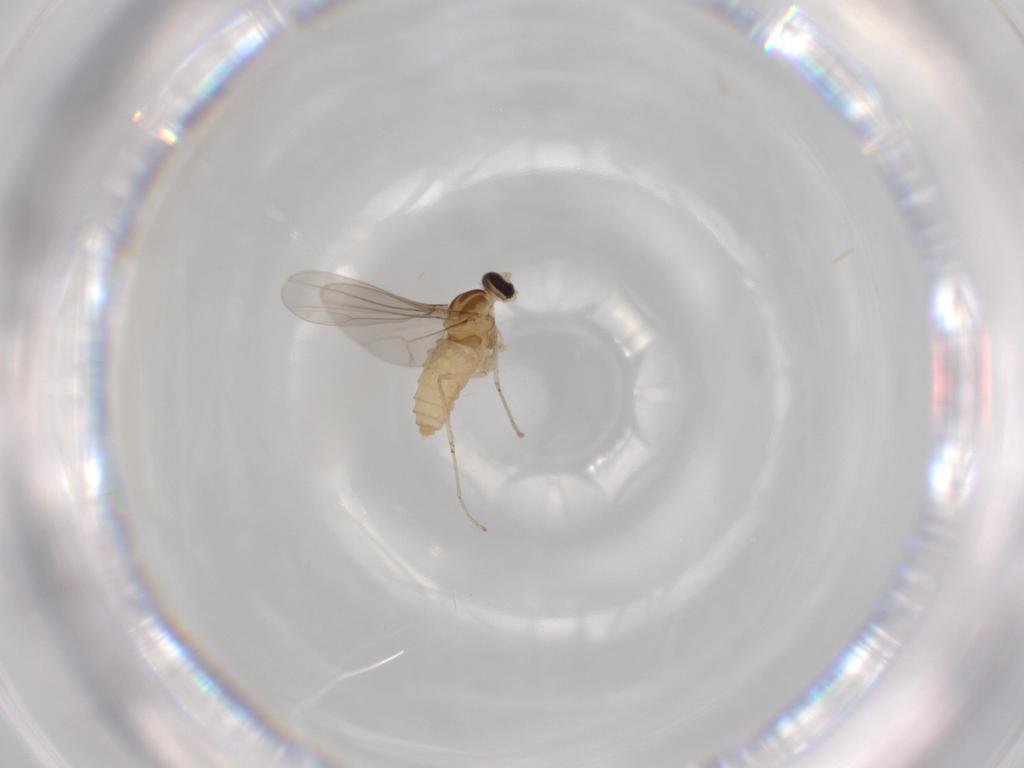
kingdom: Animalia
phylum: Arthropoda
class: Insecta
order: Diptera
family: Cecidomyiidae
